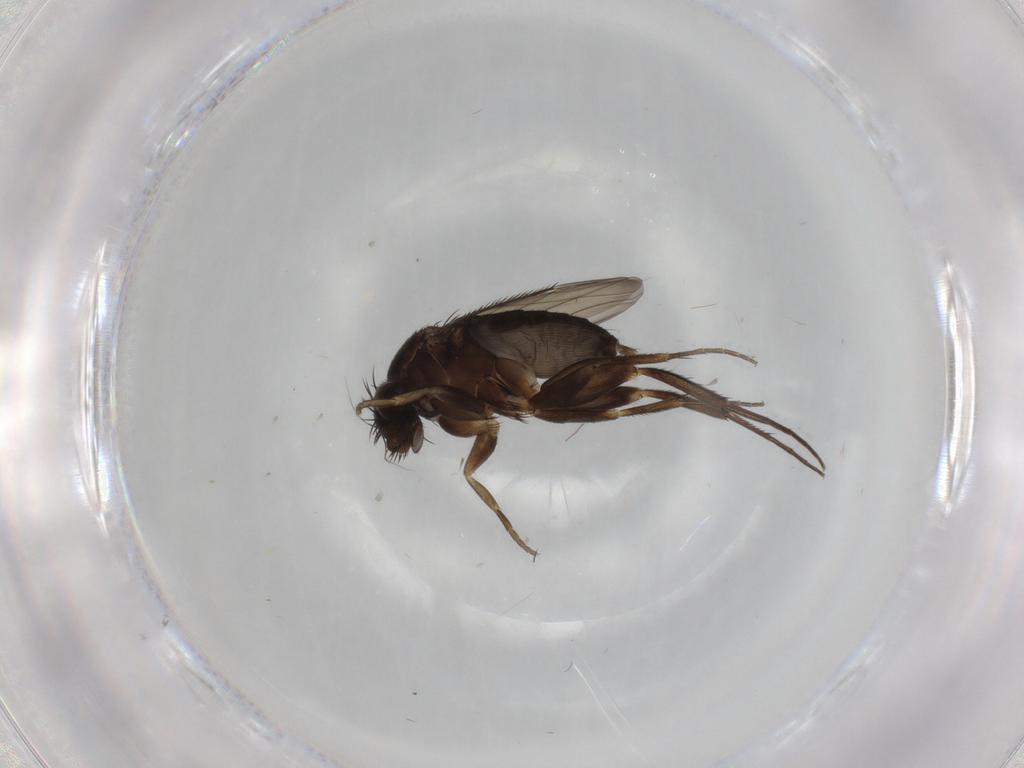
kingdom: Animalia
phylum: Arthropoda
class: Insecta
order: Diptera
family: Phoridae
